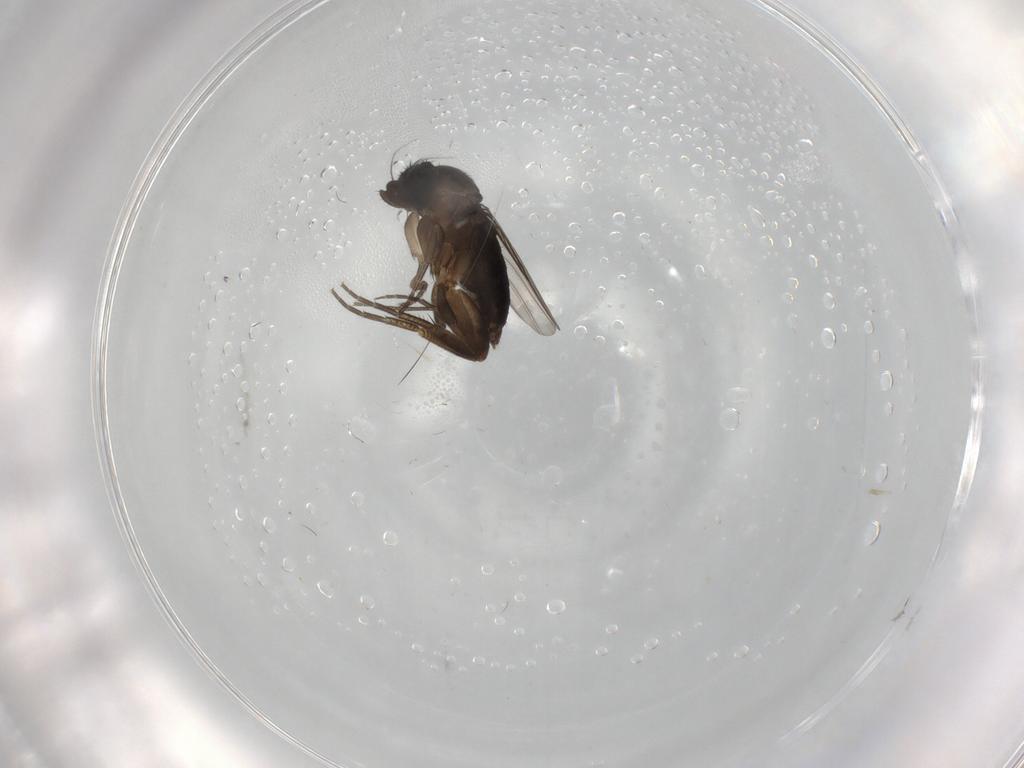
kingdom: Animalia
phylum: Arthropoda
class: Insecta
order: Diptera
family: Phoridae
